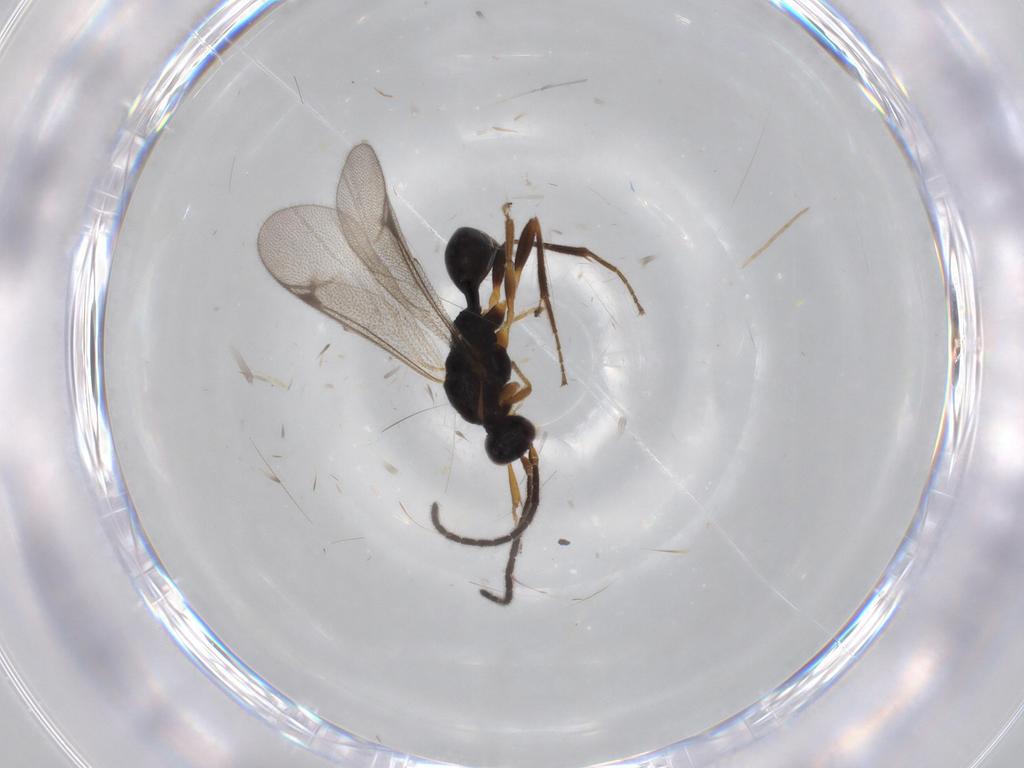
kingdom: Animalia
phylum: Arthropoda
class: Insecta
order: Hymenoptera
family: Proctotrupidae
